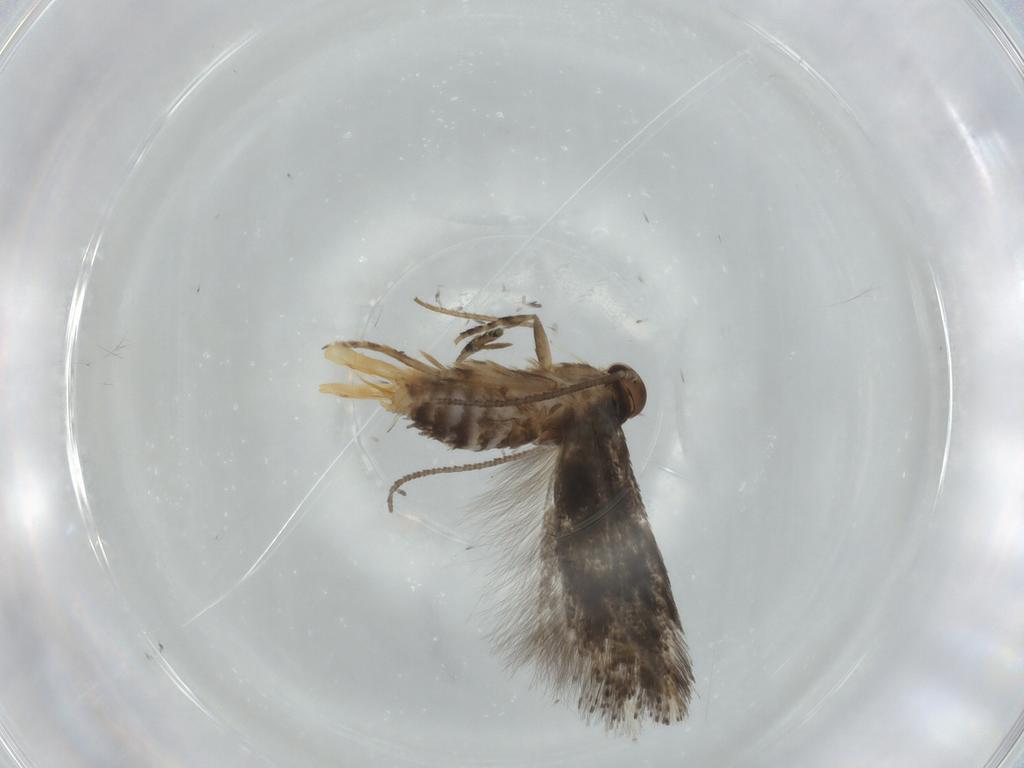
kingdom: Animalia
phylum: Arthropoda
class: Insecta
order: Lepidoptera
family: Elachistidae
